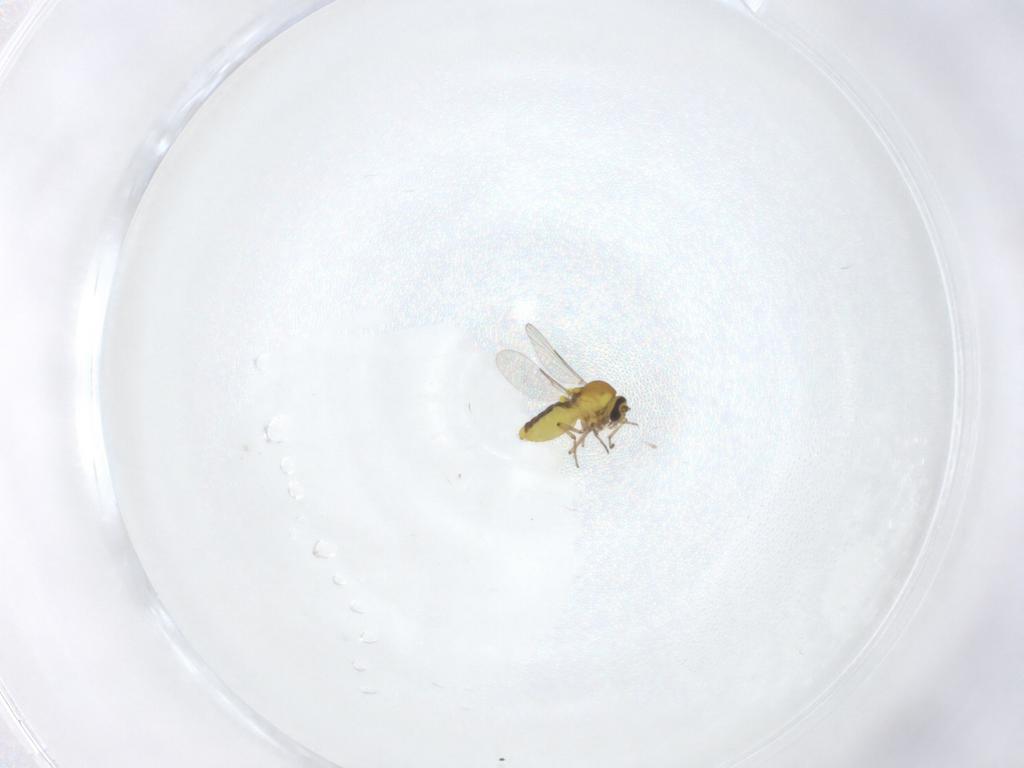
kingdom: Animalia
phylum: Arthropoda
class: Insecta
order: Diptera
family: Ceratopogonidae
